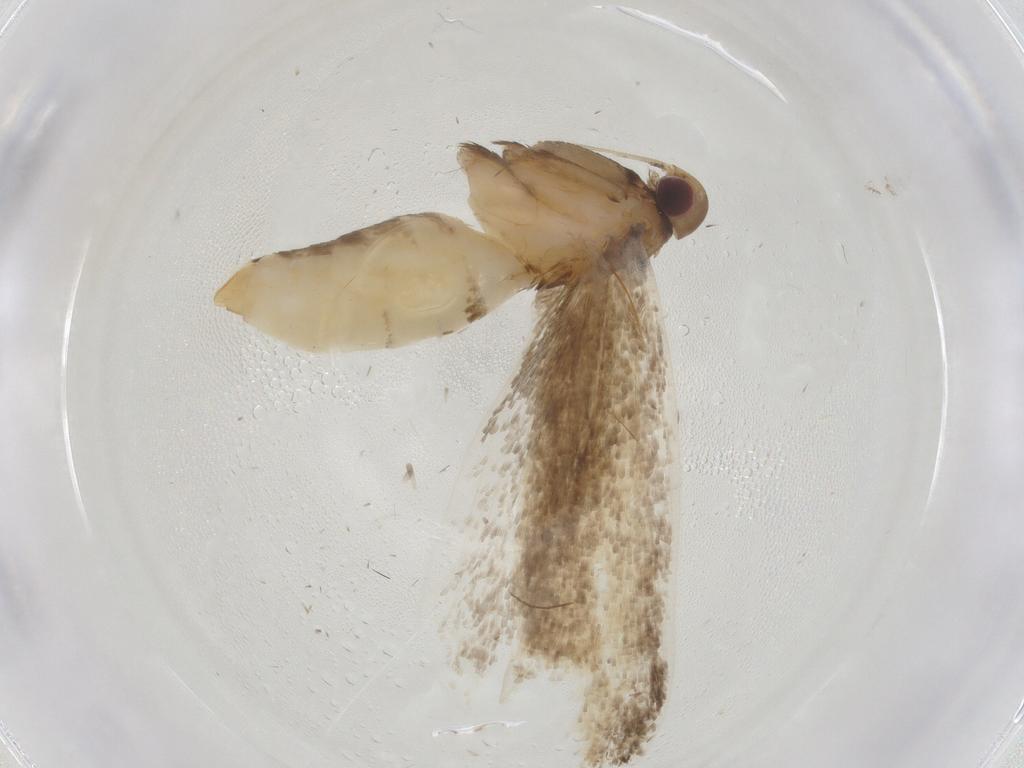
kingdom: Animalia
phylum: Arthropoda
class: Insecta
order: Lepidoptera
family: Crambidae
